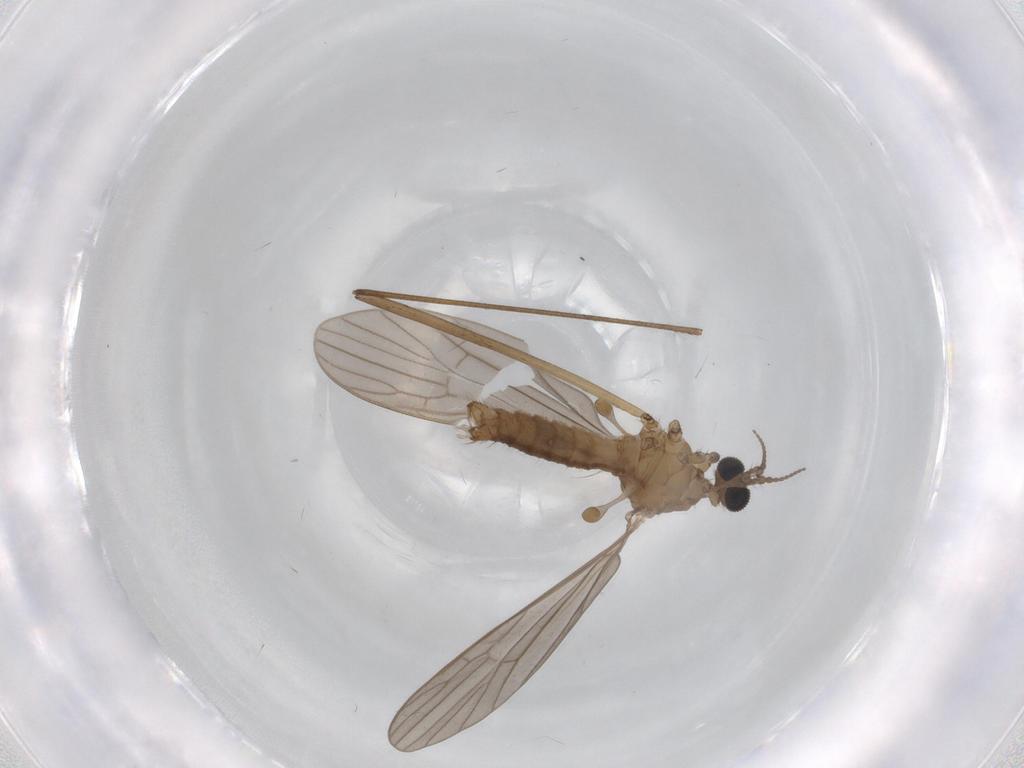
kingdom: Animalia
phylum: Arthropoda
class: Insecta
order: Diptera
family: Limoniidae
